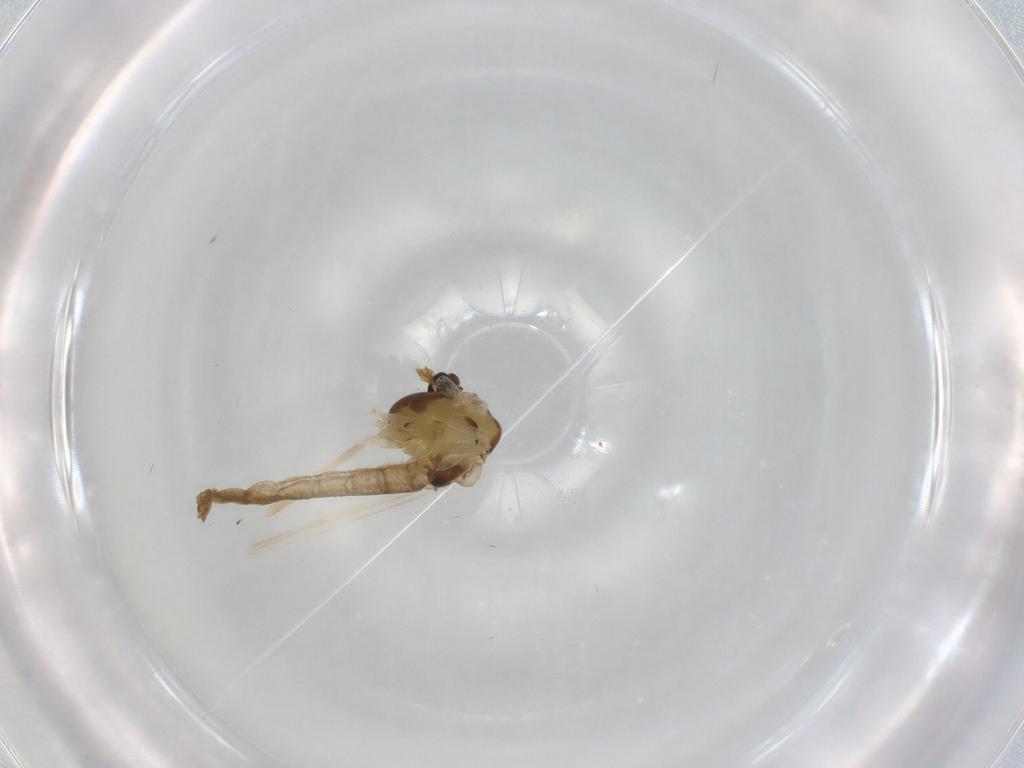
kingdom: Animalia
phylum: Arthropoda
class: Insecta
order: Diptera
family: Chironomidae
